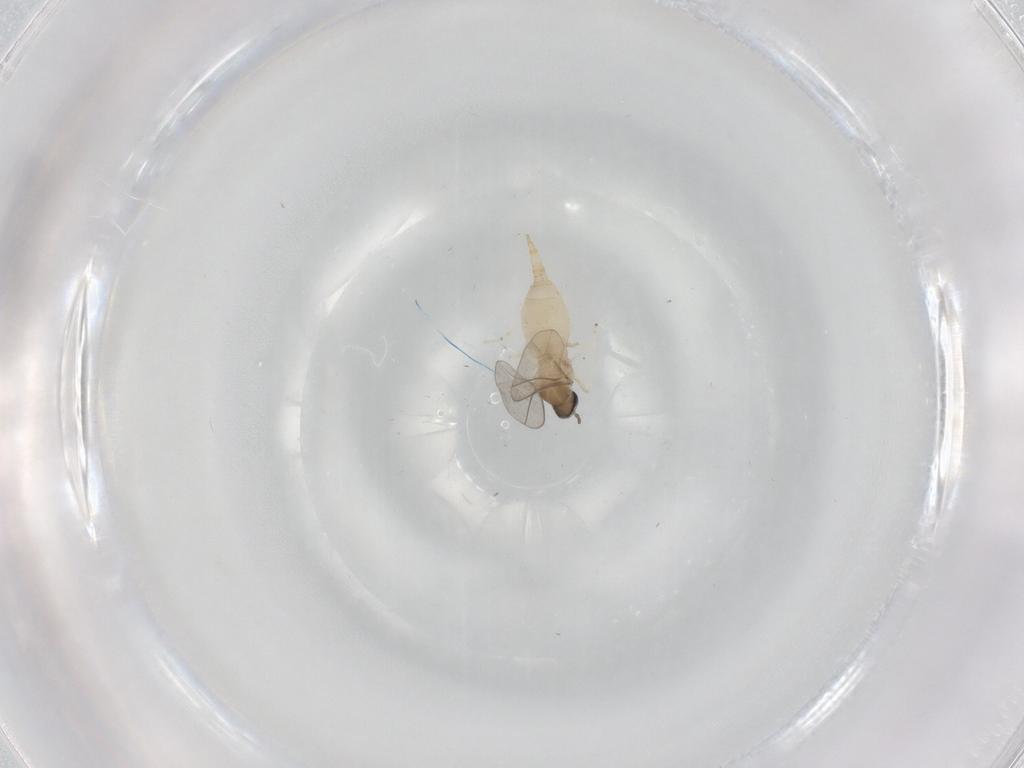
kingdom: Animalia
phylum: Arthropoda
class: Insecta
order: Diptera
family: Cecidomyiidae
